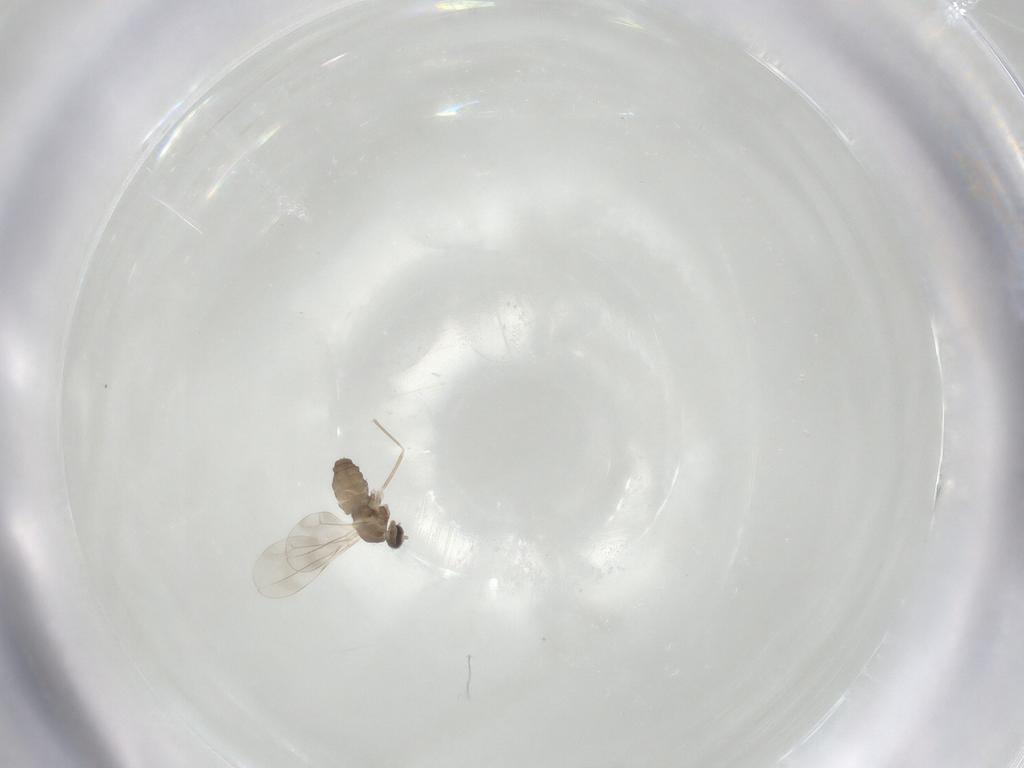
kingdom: Animalia
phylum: Arthropoda
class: Insecta
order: Diptera
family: Cecidomyiidae
